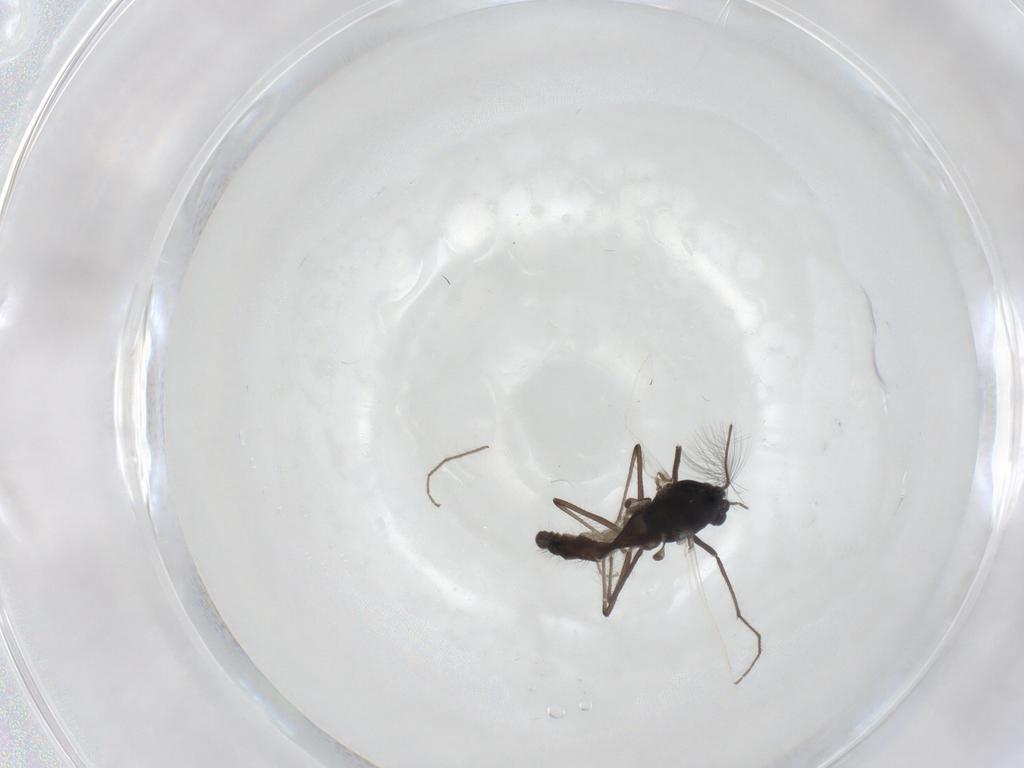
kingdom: Animalia
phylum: Arthropoda
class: Insecta
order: Diptera
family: Chironomidae
